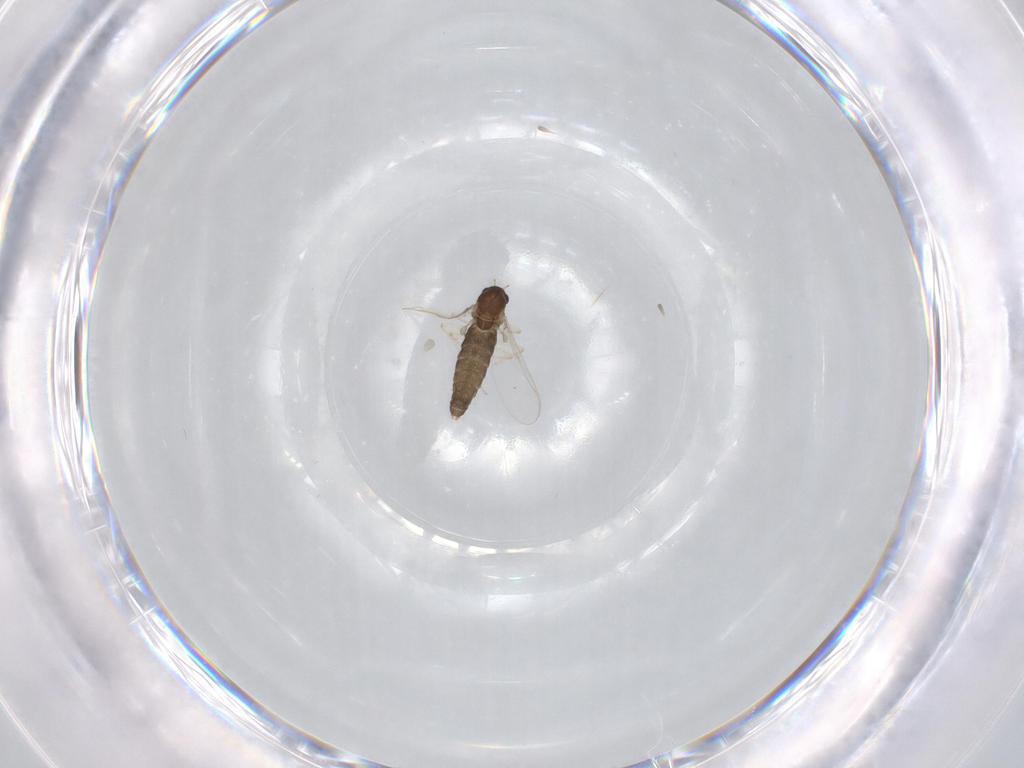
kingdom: Animalia
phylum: Arthropoda
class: Insecta
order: Diptera
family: Chironomidae
